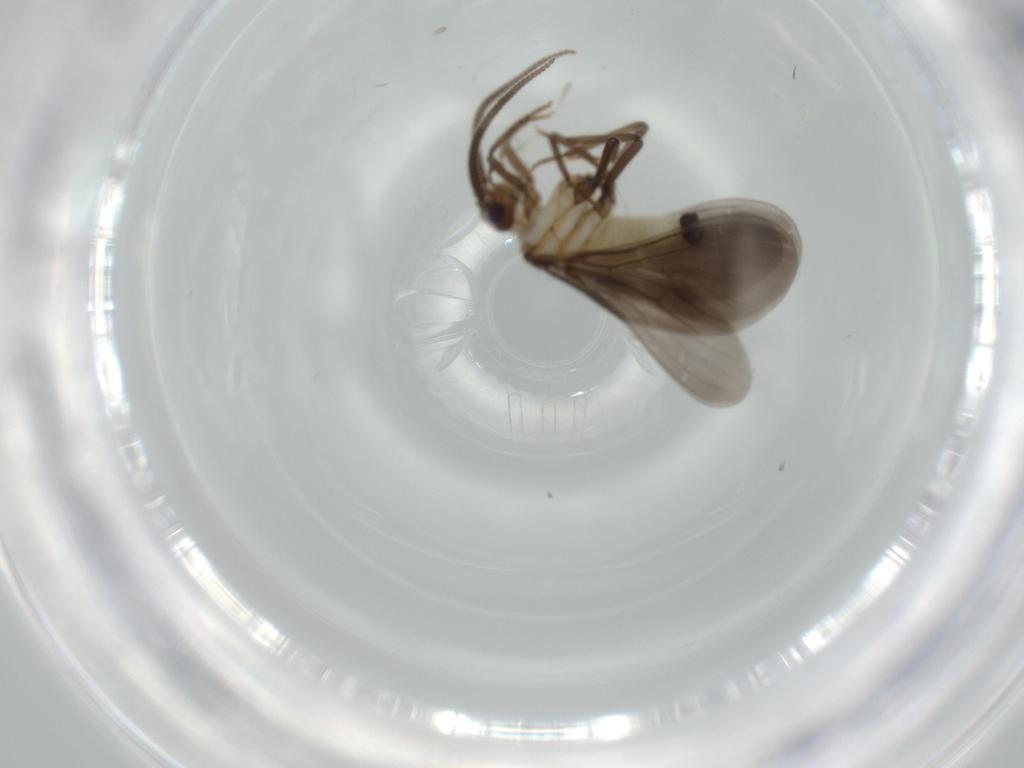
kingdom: Animalia
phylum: Arthropoda
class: Insecta
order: Neuroptera
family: Coniopterygidae
